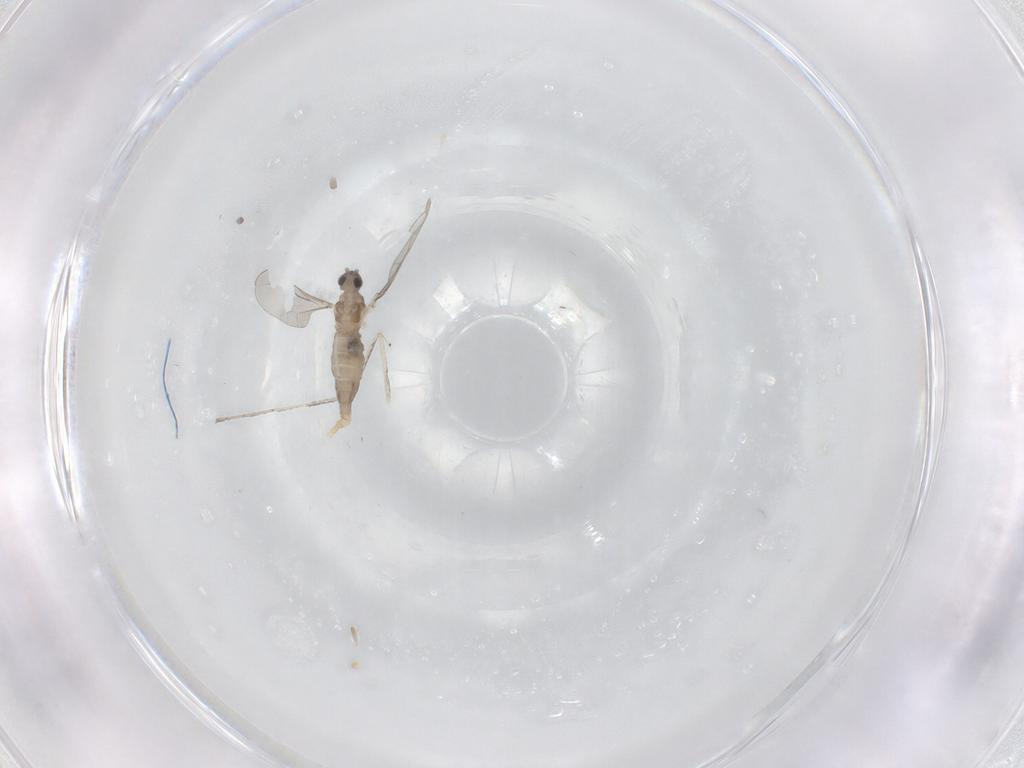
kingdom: Animalia
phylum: Arthropoda
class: Insecta
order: Diptera
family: Cecidomyiidae
